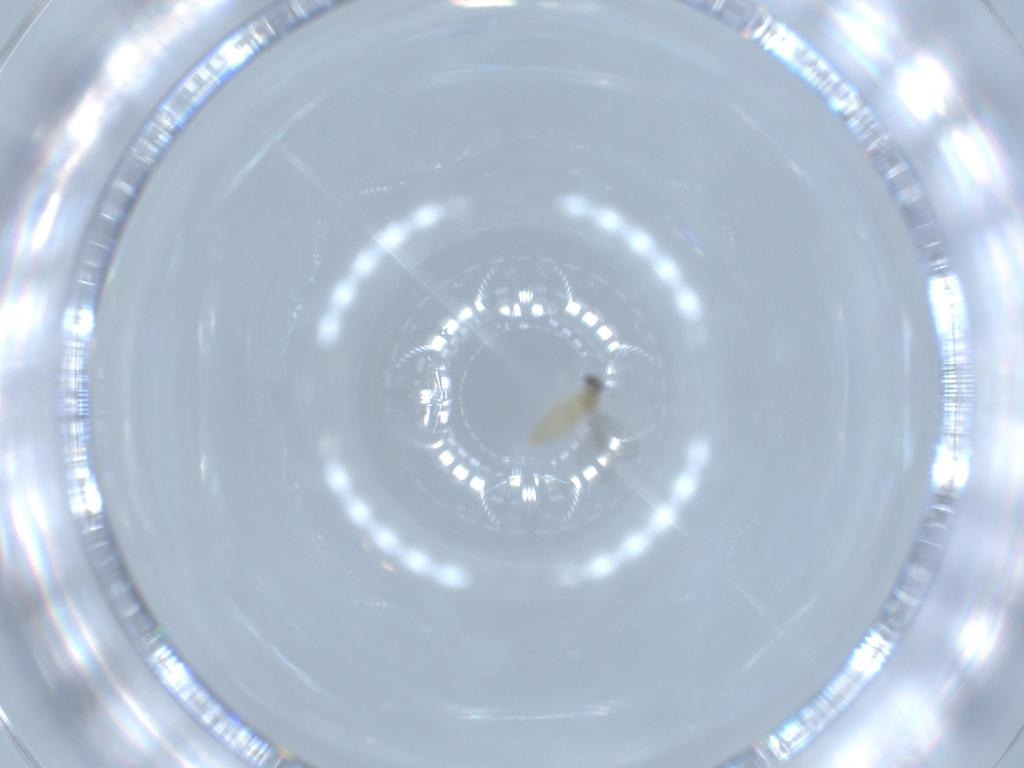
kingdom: Animalia
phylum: Arthropoda
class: Insecta
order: Diptera
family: Cecidomyiidae
